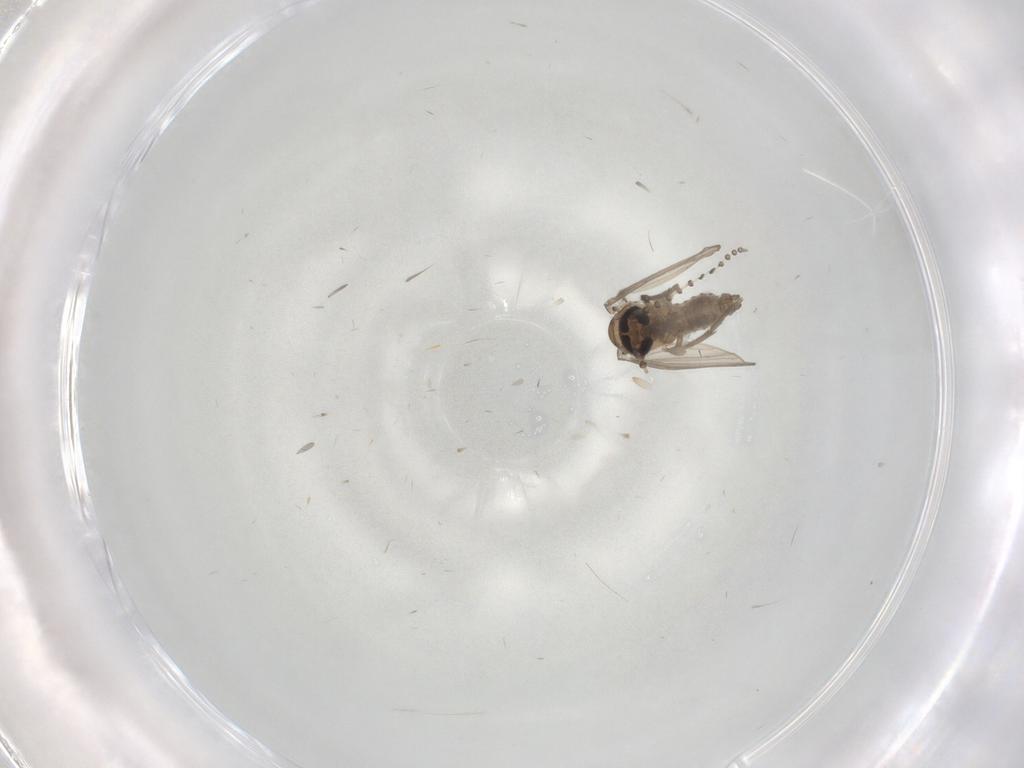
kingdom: Animalia
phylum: Arthropoda
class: Insecta
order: Diptera
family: Psychodidae
